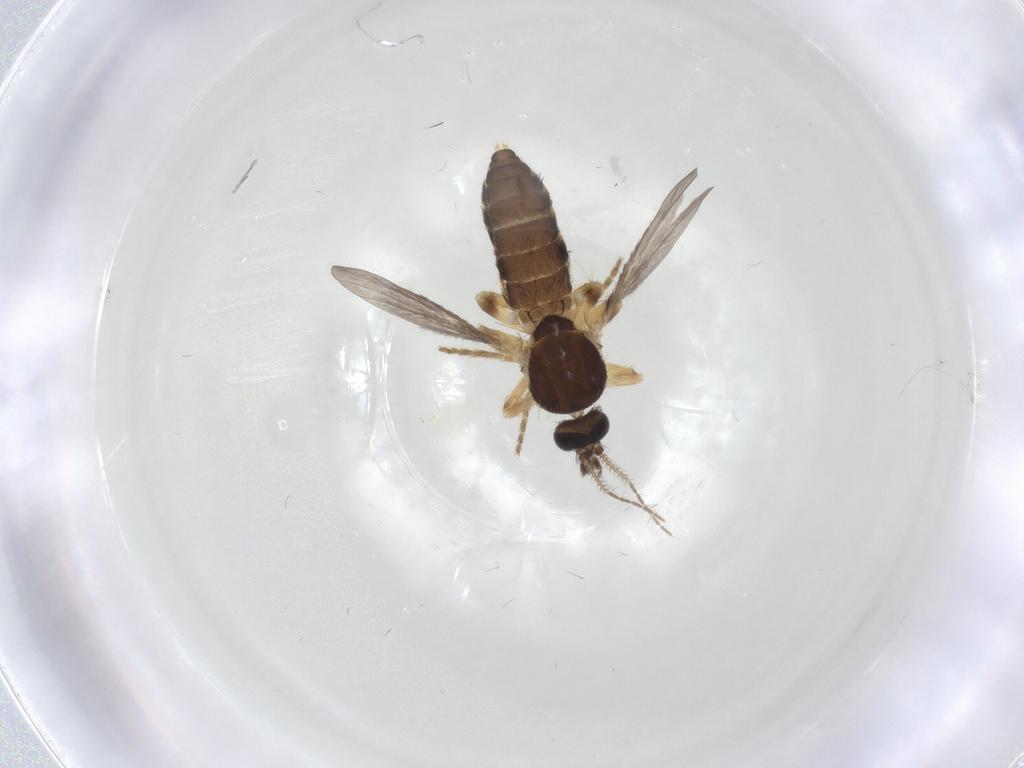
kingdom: Animalia
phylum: Arthropoda
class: Insecta
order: Diptera
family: Ceratopogonidae
